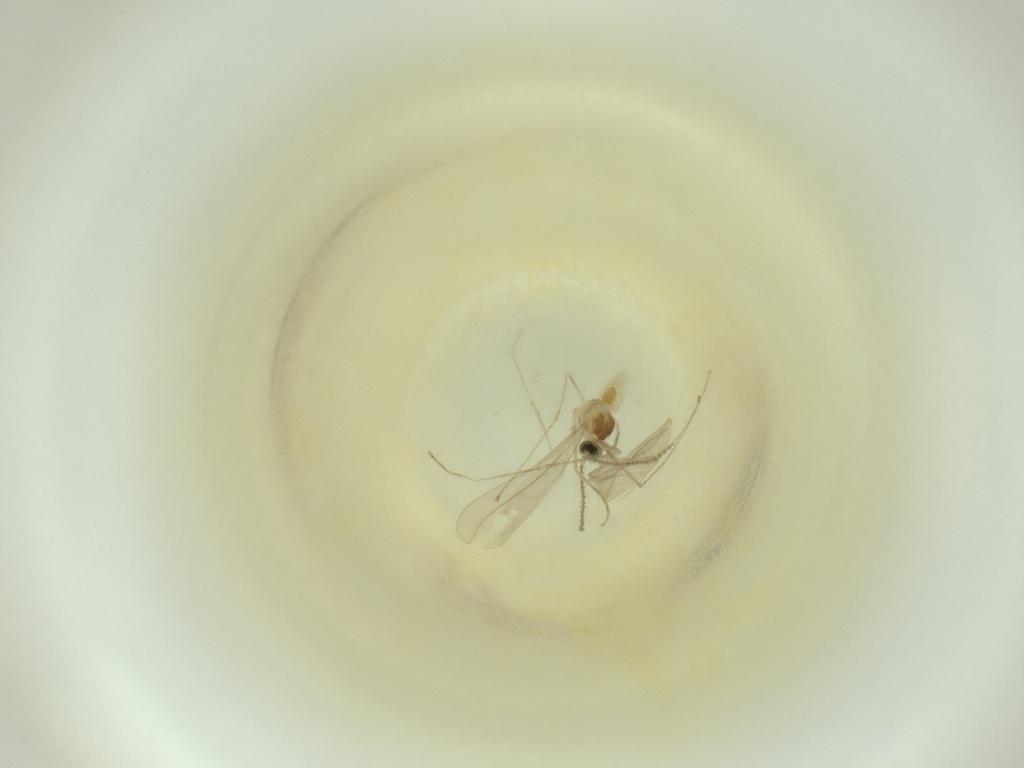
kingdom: Animalia
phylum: Arthropoda
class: Insecta
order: Diptera
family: Cecidomyiidae
